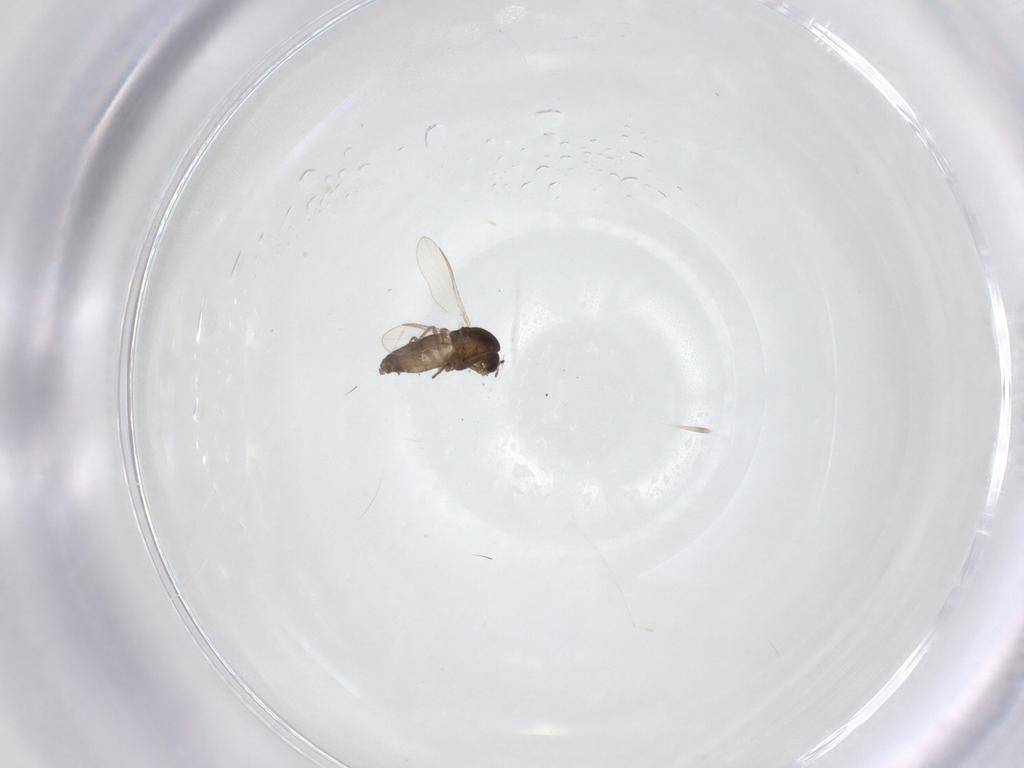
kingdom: Animalia
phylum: Arthropoda
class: Insecta
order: Diptera
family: Chironomidae
